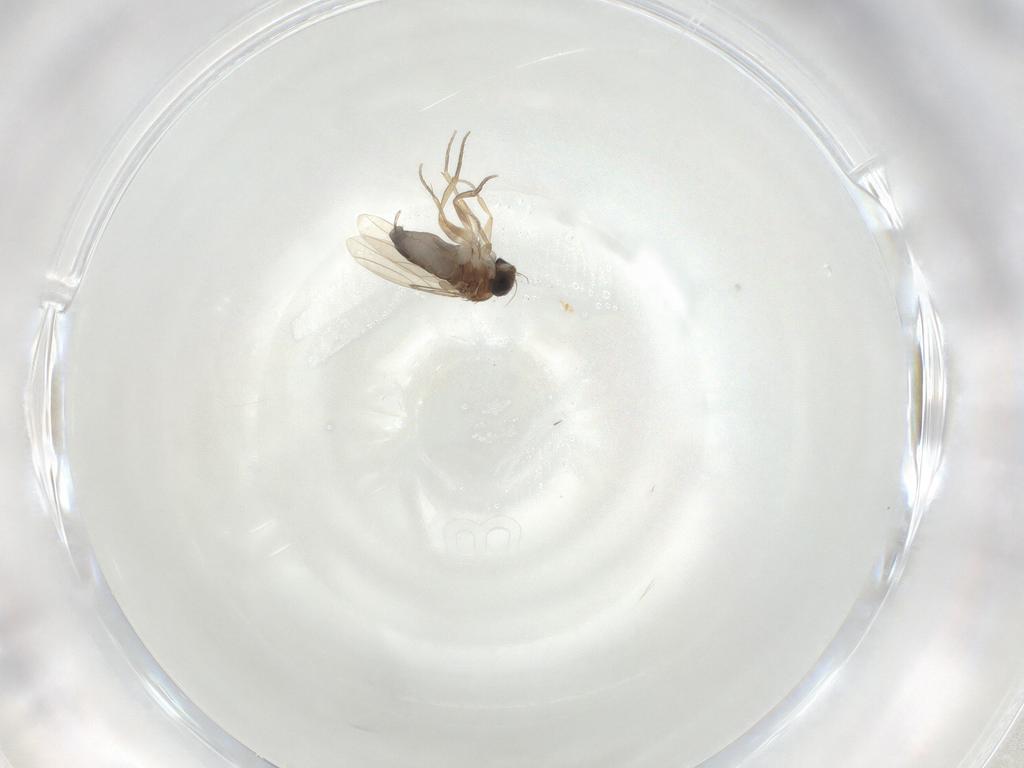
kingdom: Animalia
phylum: Arthropoda
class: Insecta
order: Diptera
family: Phoridae
